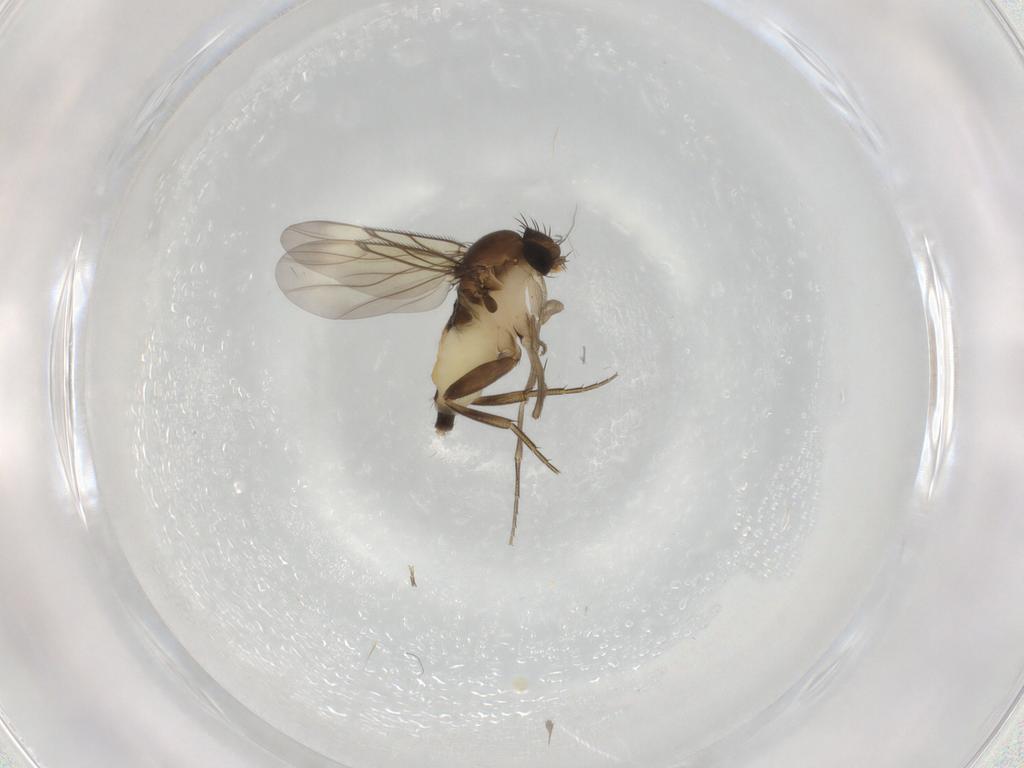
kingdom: Animalia
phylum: Arthropoda
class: Insecta
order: Diptera
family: Phoridae
